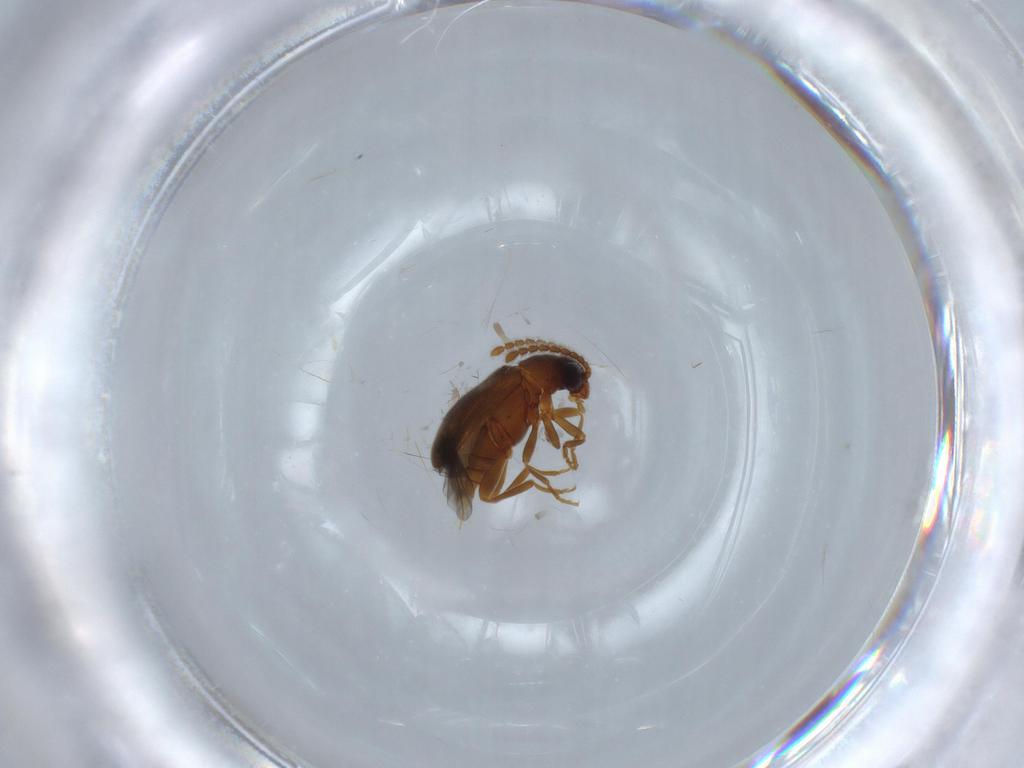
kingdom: Animalia
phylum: Arthropoda
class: Insecta
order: Coleoptera
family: Aderidae
